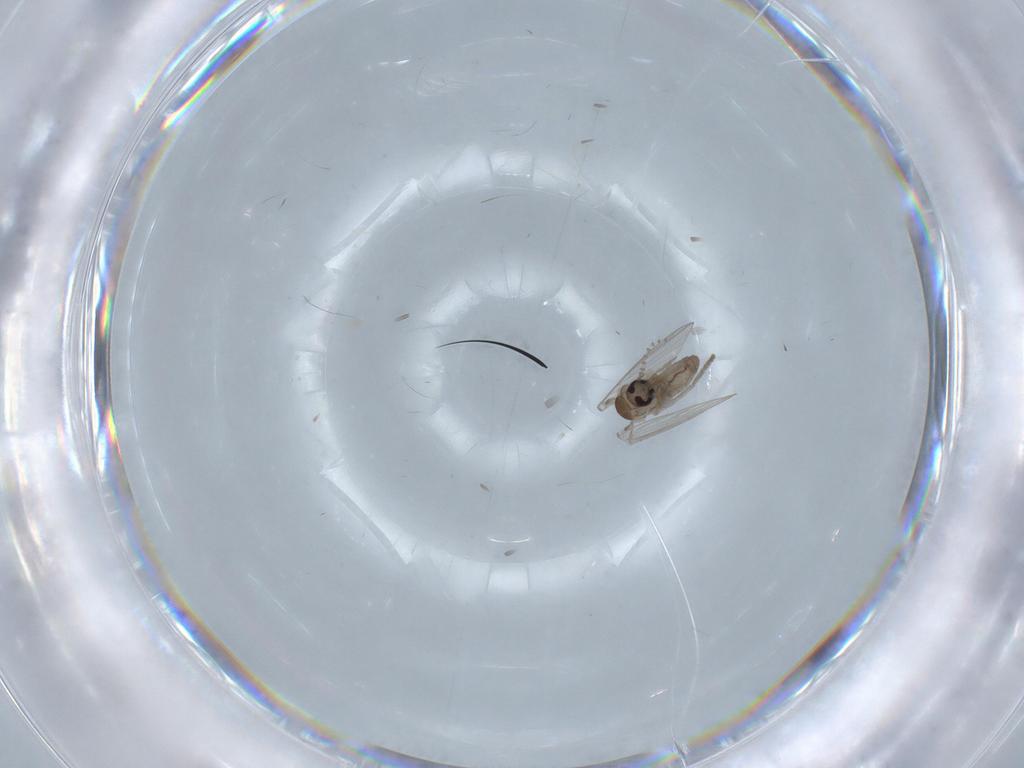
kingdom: Animalia
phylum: Arthropoda
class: Insecta
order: Diptera
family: Psychodidae
